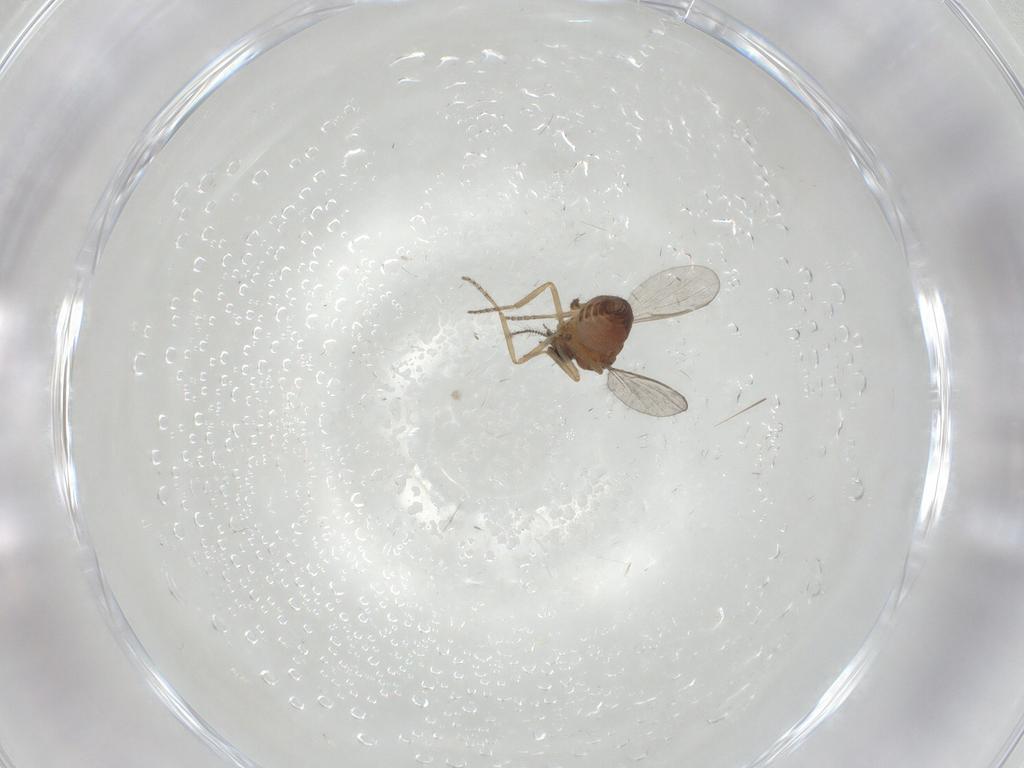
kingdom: Animalia
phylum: Arthropoda
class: Insecta
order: Diptera
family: Ceratopogonidae
